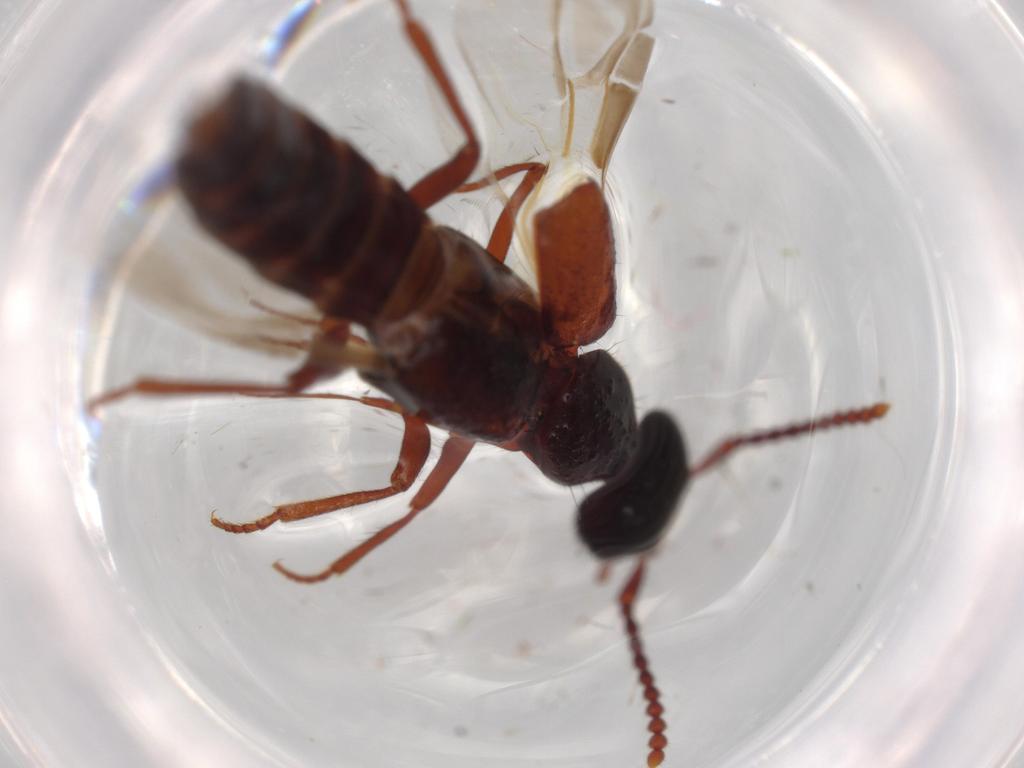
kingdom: Animalia
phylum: Arthropoda
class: Insecta
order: Coleoptera
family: Staphylinidae
